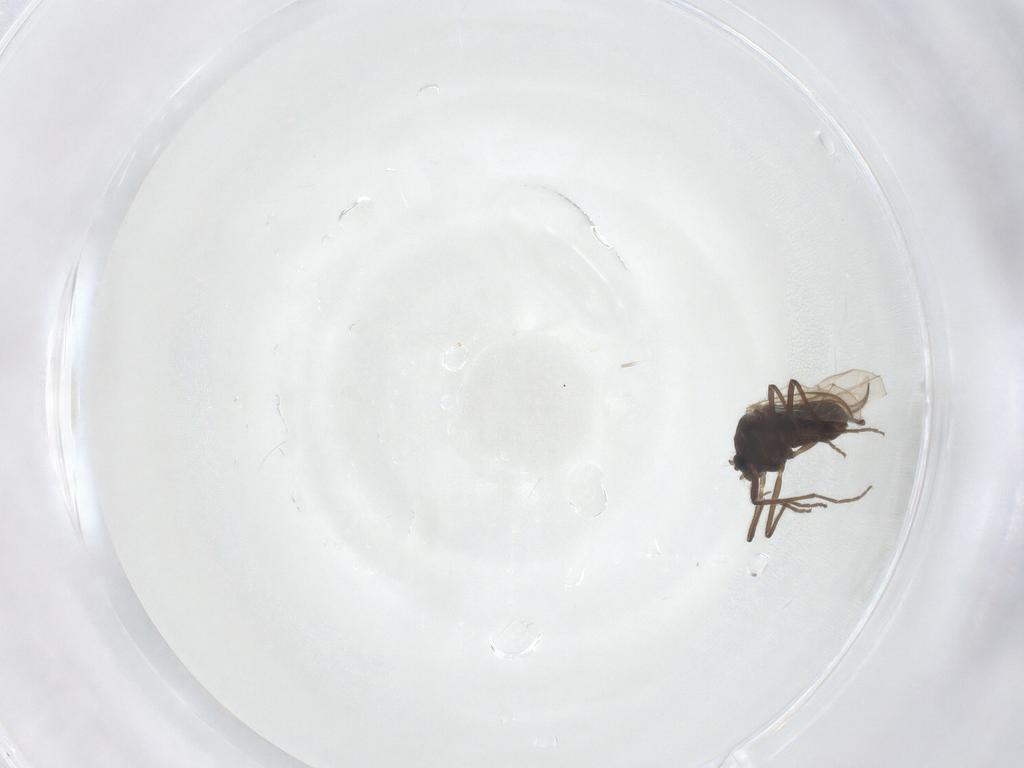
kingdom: Animalia
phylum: Arthropoda
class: Insecta
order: Diptera
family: Chironomidae
